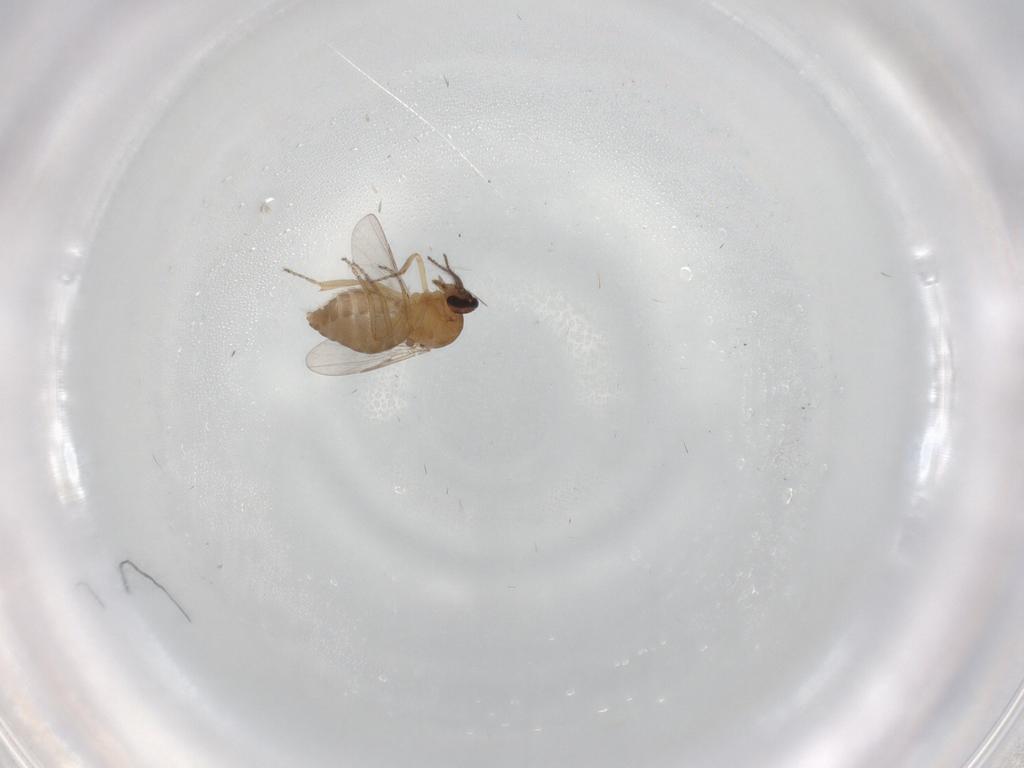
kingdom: Animalia
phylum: Arthropoda
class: Insecta
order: Diptera
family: Ceratopogonidae
